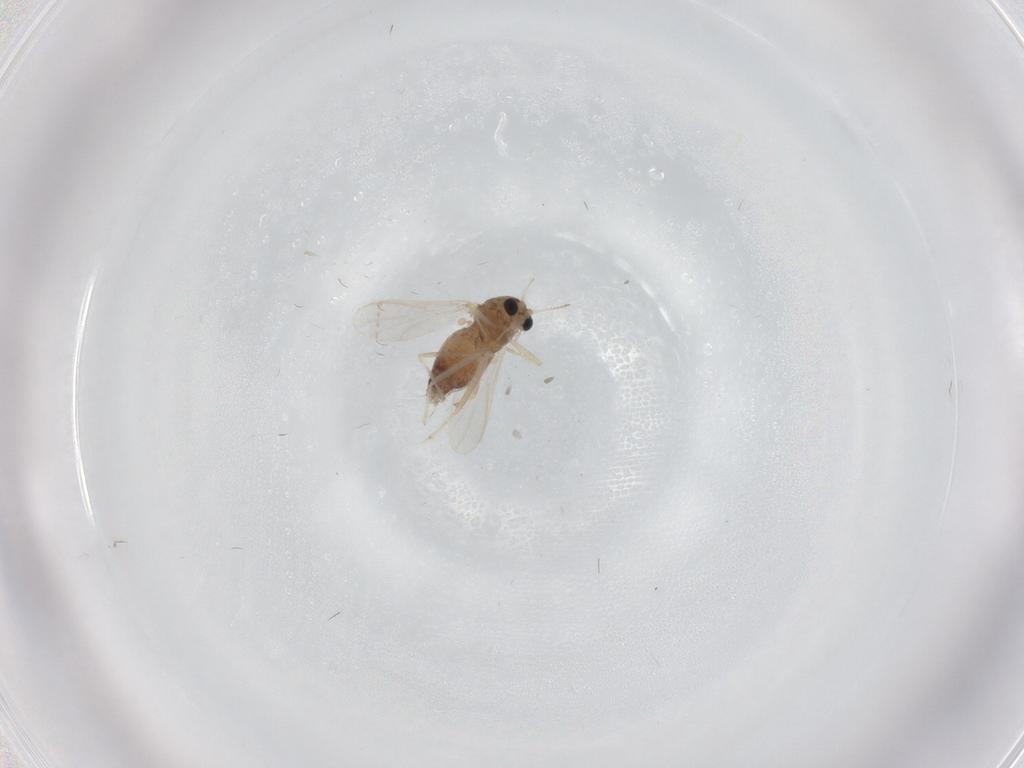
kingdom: Animalia
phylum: Arthropoda
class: Insecta
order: Diptera
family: Chironomidae
